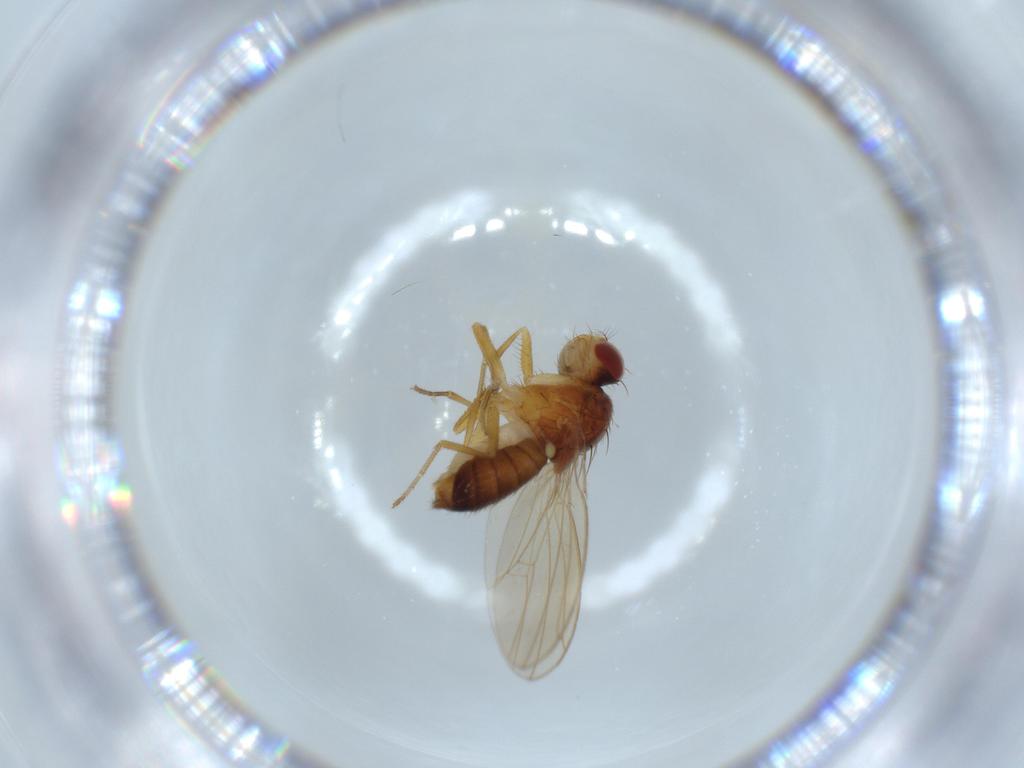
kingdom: Animalia
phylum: Arthropoda
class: Insecta
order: Diptera
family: Drosophilidae
